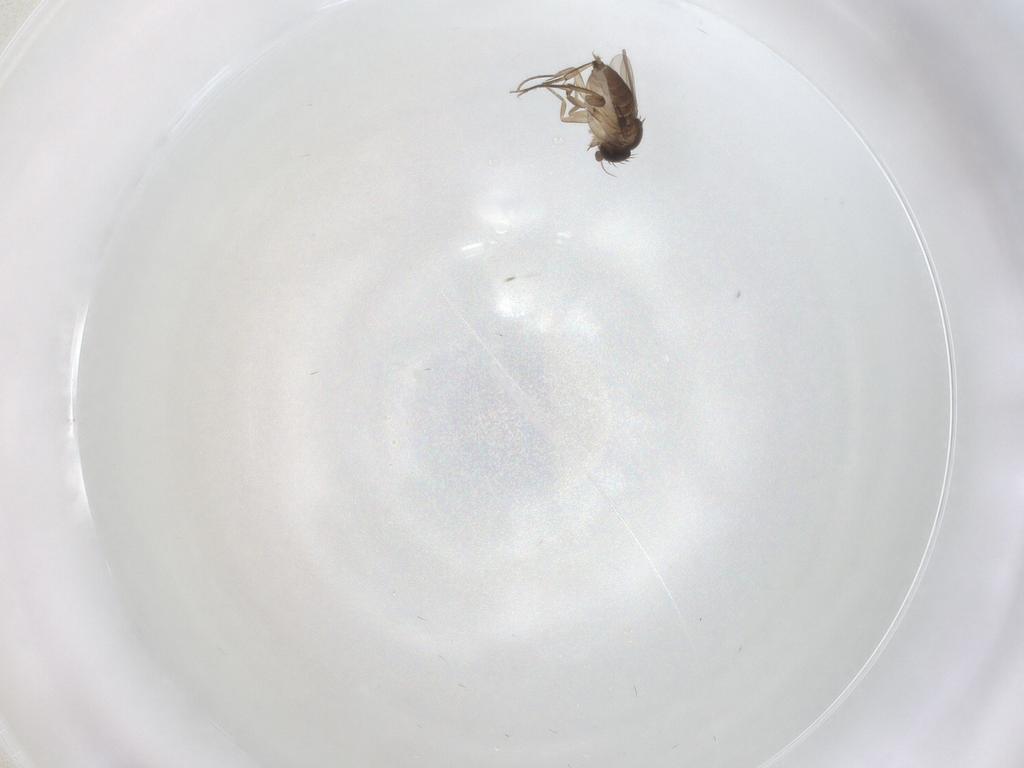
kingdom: Animalia
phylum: Arthropoda
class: Insecta
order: Diptera
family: Phoridae
